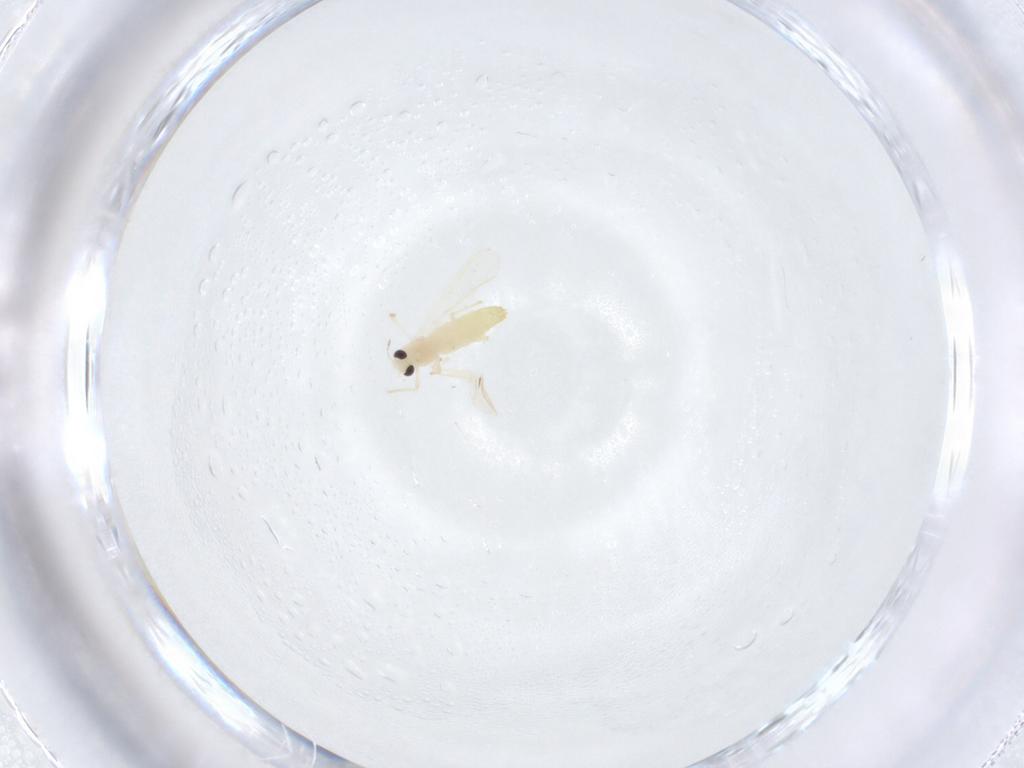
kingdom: Animalia
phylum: Arthropoda
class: Insecta
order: Diptera
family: Chironomidae
